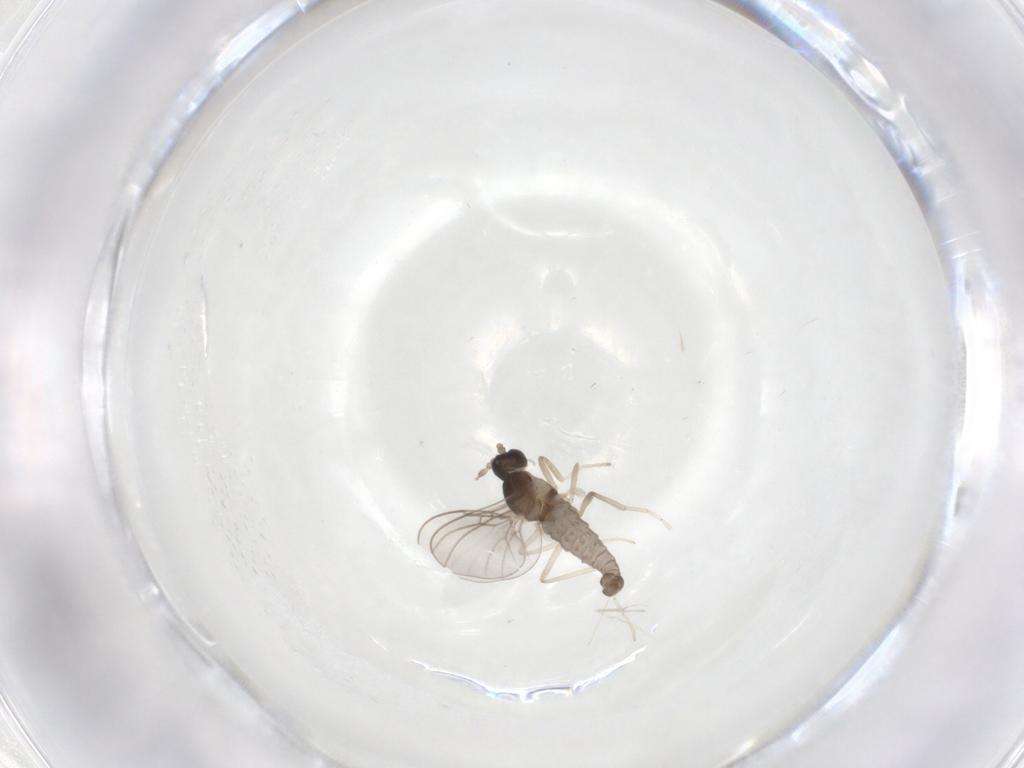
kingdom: Animalia
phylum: Arthropoda
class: Insecta
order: Diptera
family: Cecidomyiidae
